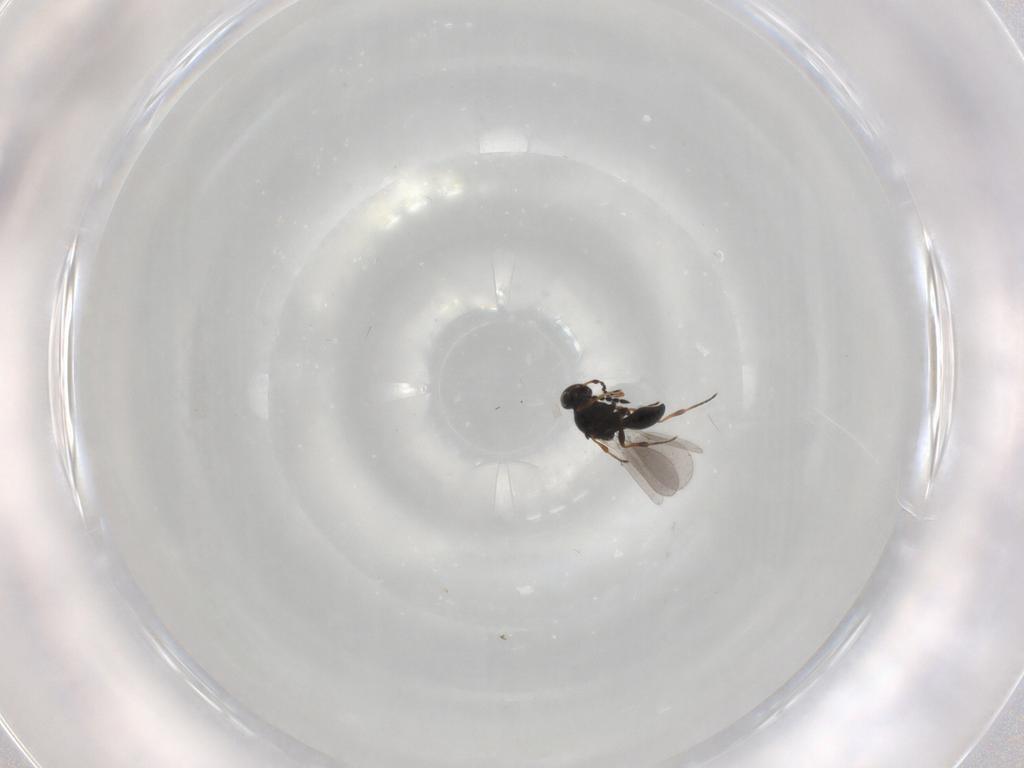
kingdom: Animalia
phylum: Arthropoda
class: Insecta
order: Hymenoptera
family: Platygastridae
